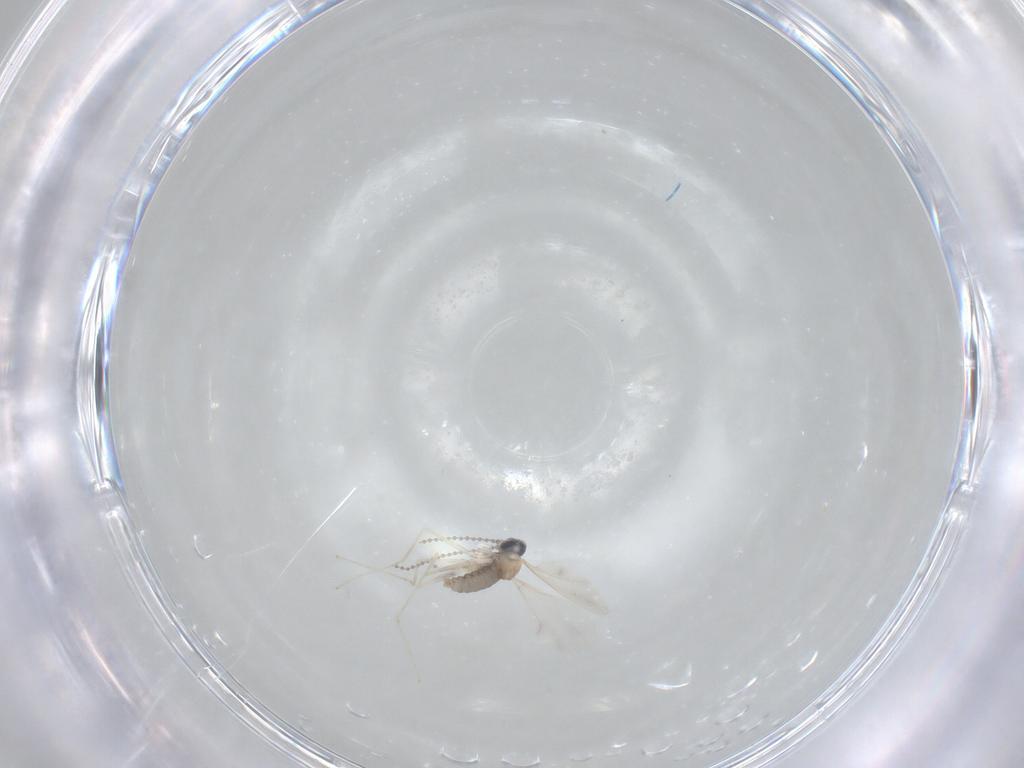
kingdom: Animalia
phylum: Arthropoda
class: Insecta
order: Diptera
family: Cecidomyiidae
